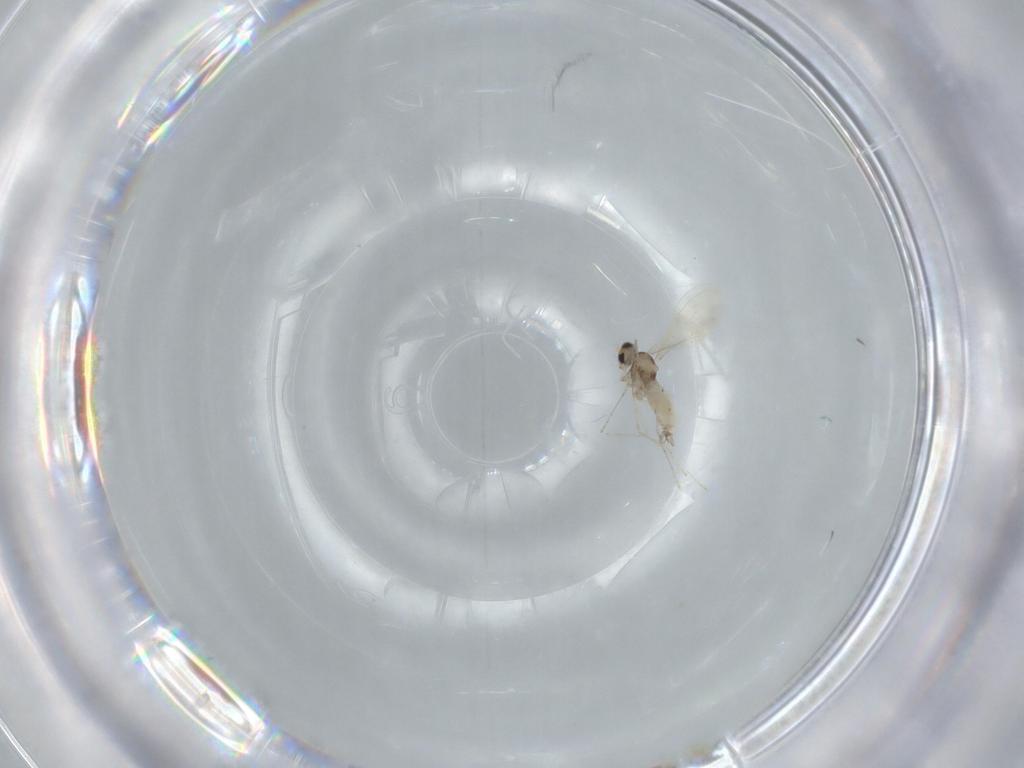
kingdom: Animalia
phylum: Arthropoda
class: Insecta
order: Diptera
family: Cecidomyiidae
